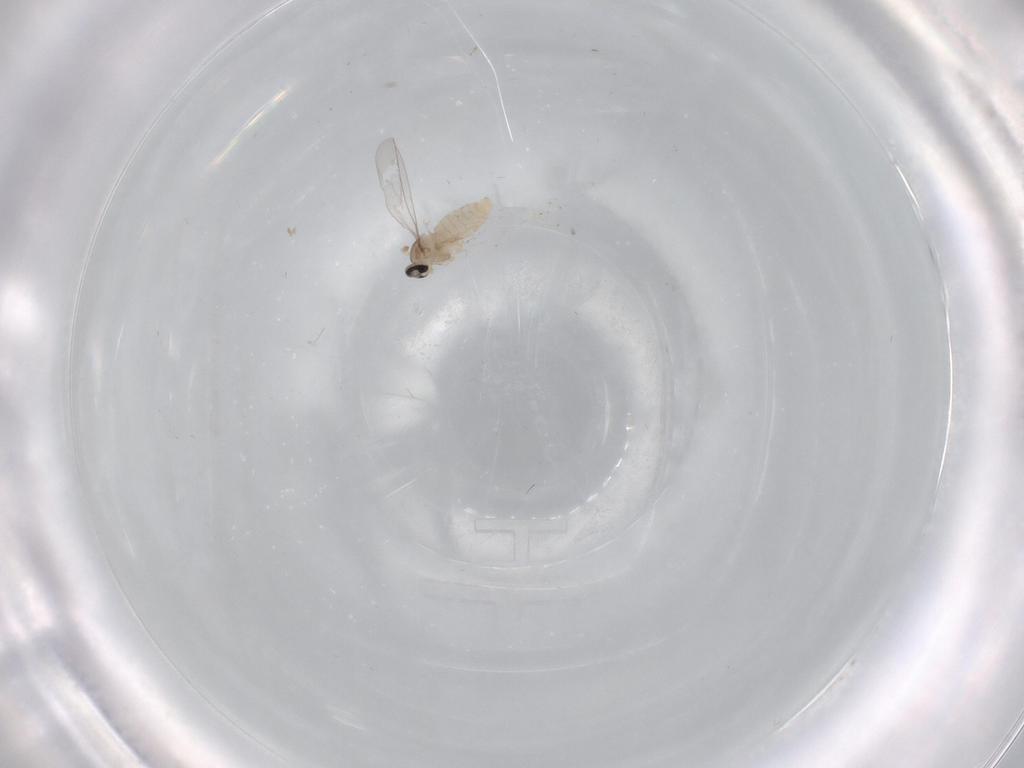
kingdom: Animalia
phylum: Arthropoda
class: Insecta
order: Diptera
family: Cecidomyiidae
